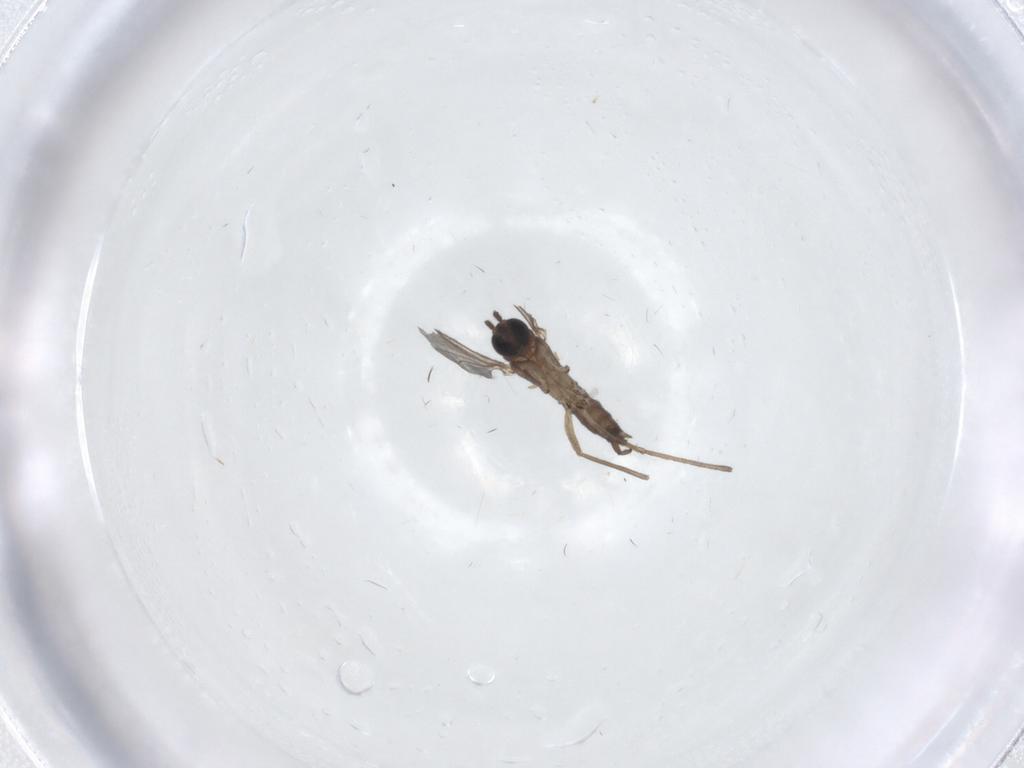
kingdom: Animalia
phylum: Arthropoda
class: Insecta
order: Diptera
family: Sciaridae
